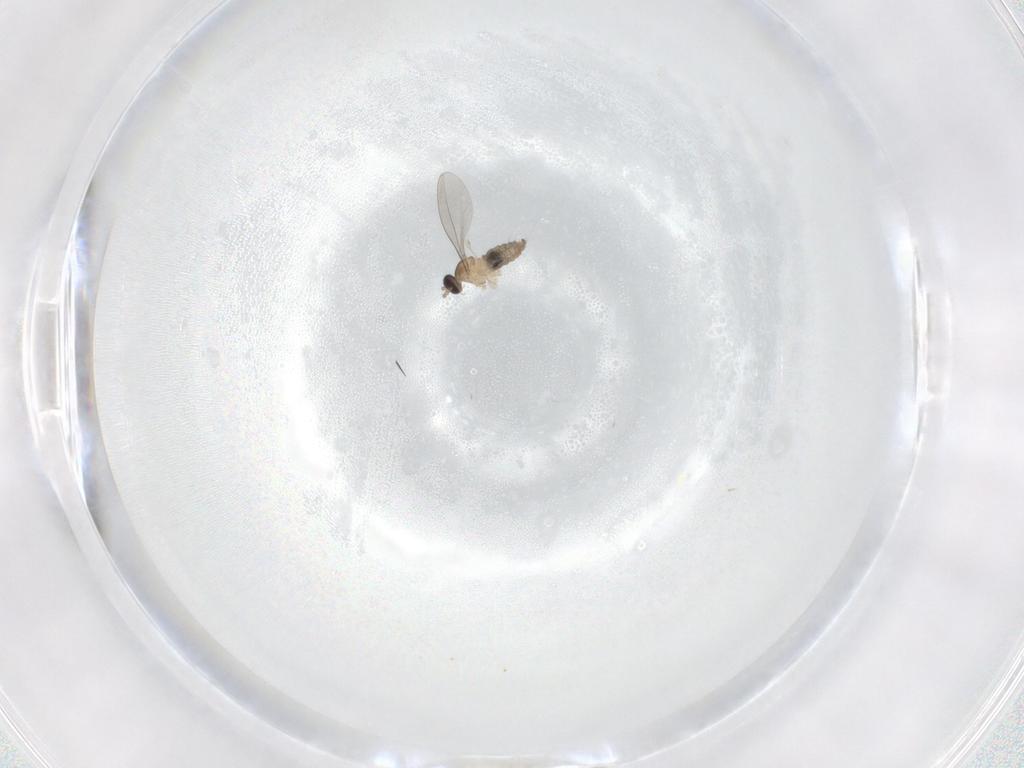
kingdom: Animalia
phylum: Arthropoda
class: Insecta
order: Diptera
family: Cecidomyiidae
